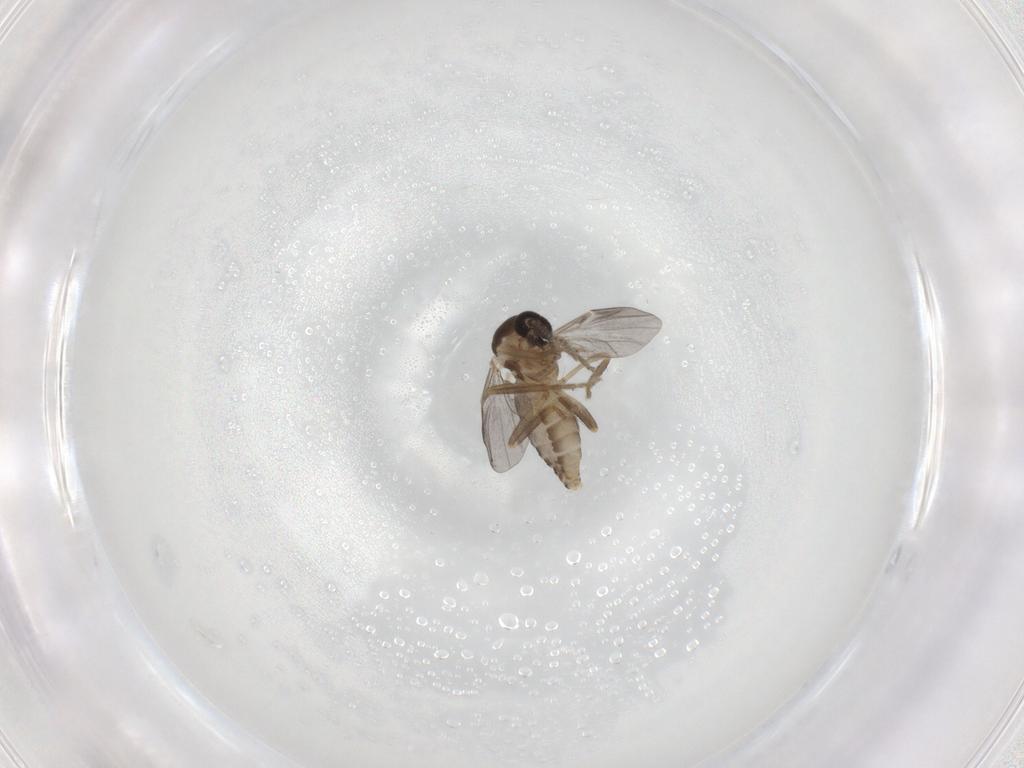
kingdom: Animalia
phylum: Arthropoda
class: Insecta
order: Diptera
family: Ceratopogonidae
